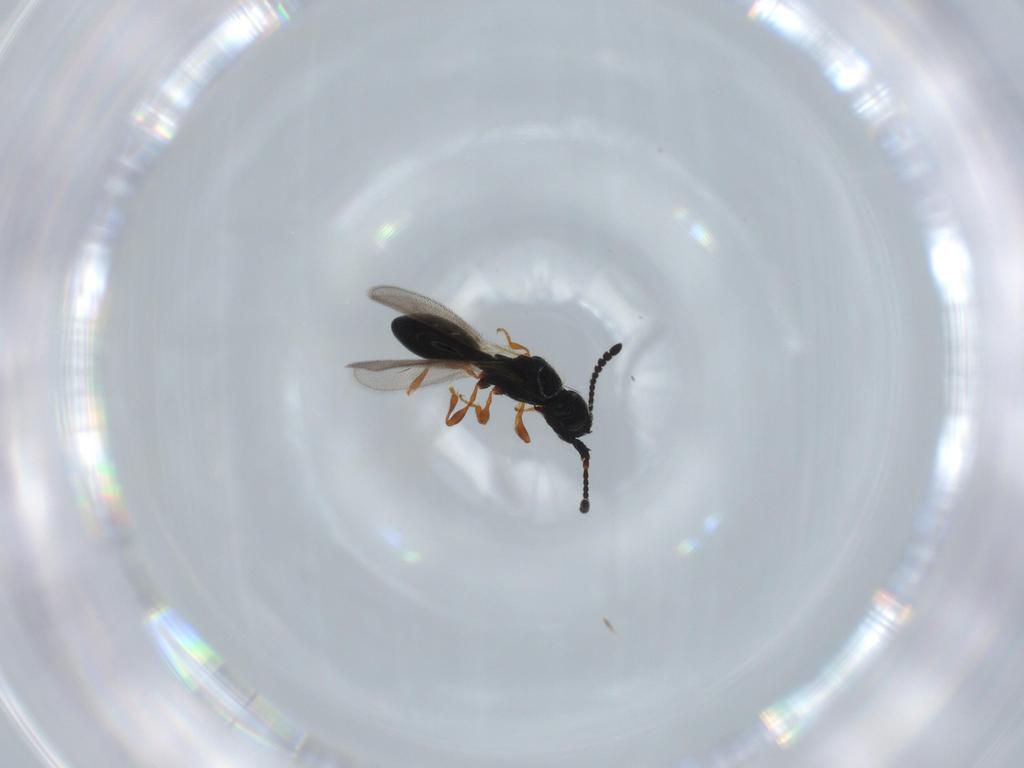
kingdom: Animalia
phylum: Arthropoda
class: Insecta
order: Hymenoptera
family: Diapriidae
